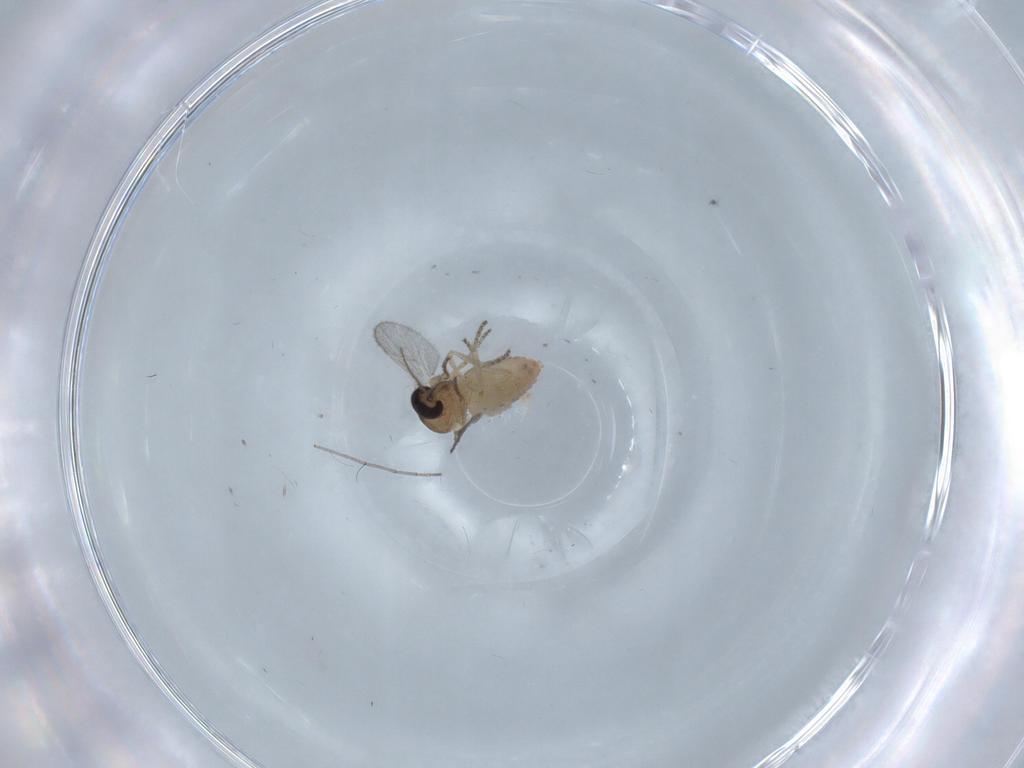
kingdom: Animalia
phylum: Arthropoda
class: Insecta
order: Diptera
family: Ceratopogonidae
